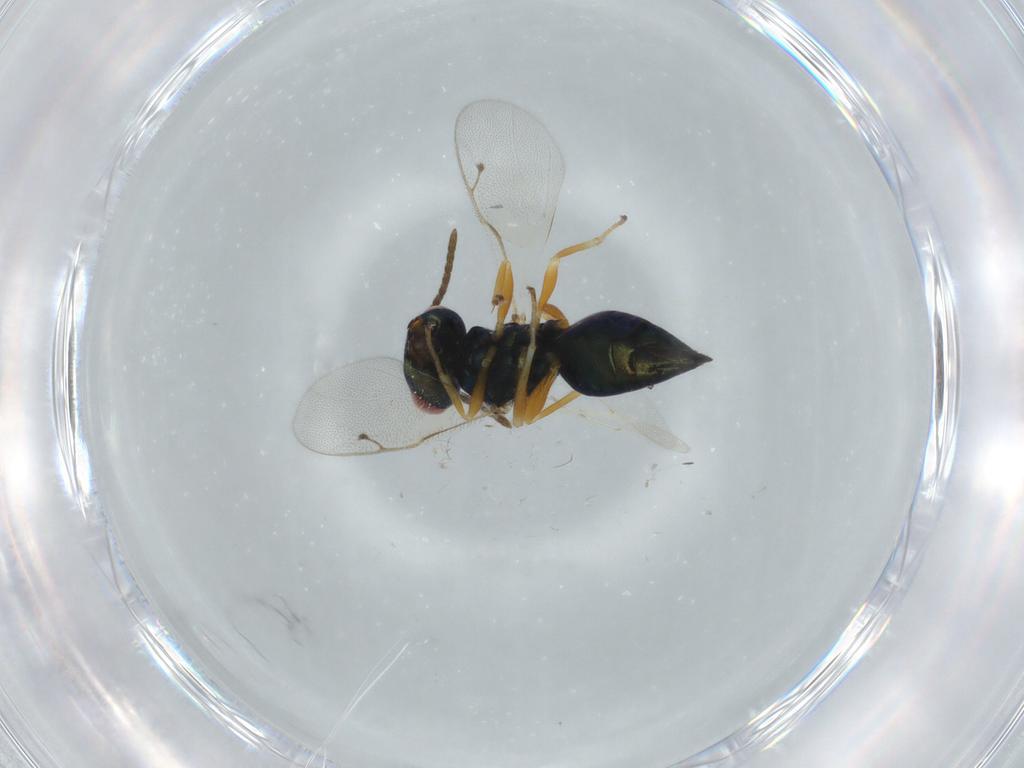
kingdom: Animalia
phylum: Arthropoda
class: Insecta
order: Hymenoptera
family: Pteromalidae
